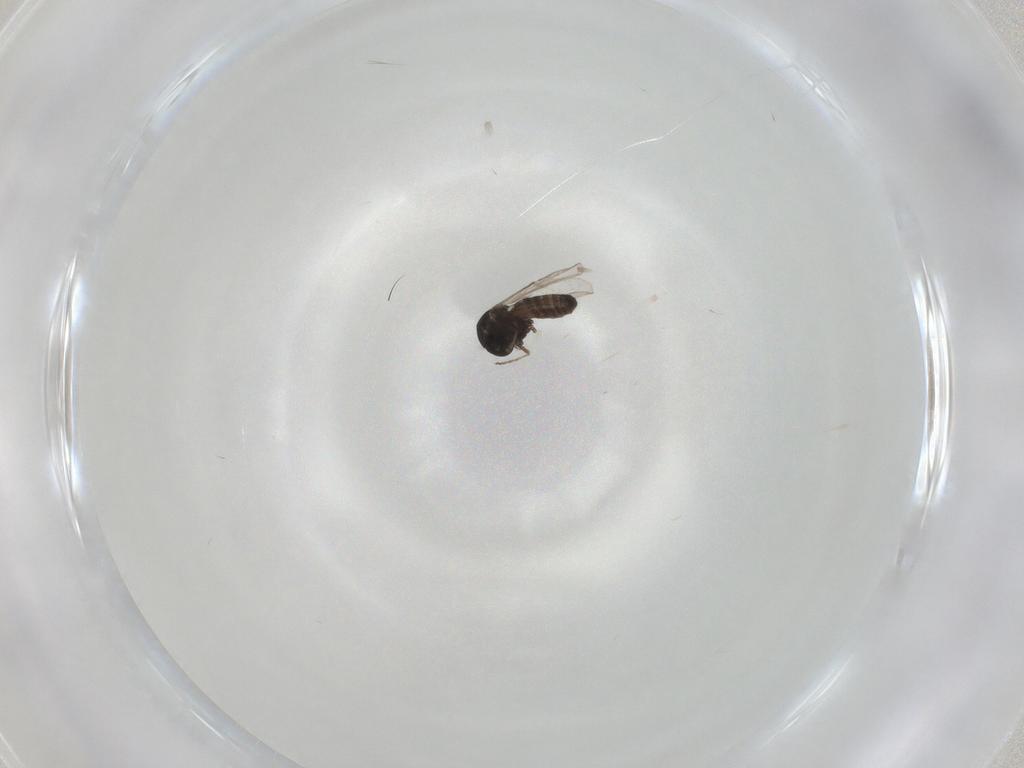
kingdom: Animalia
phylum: Arthropoda
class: Insecta
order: Diptera
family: Ceratopogonidae
